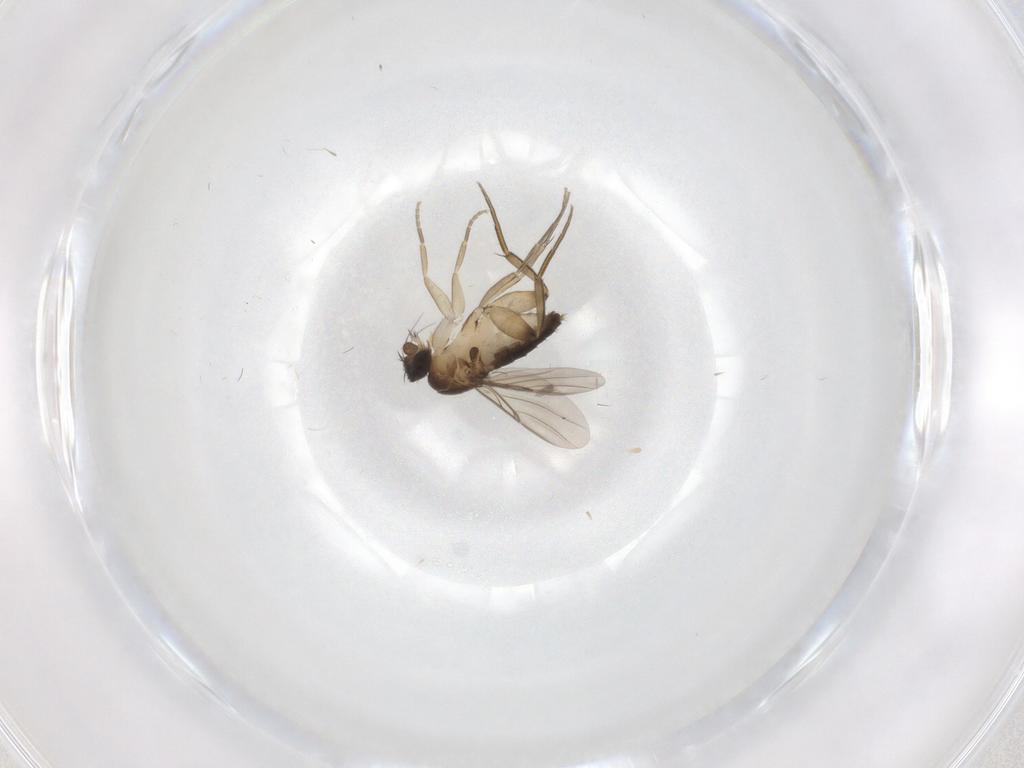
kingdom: Animalia
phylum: Arthropoda
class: Insecta
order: Diptera
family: Phoridae
